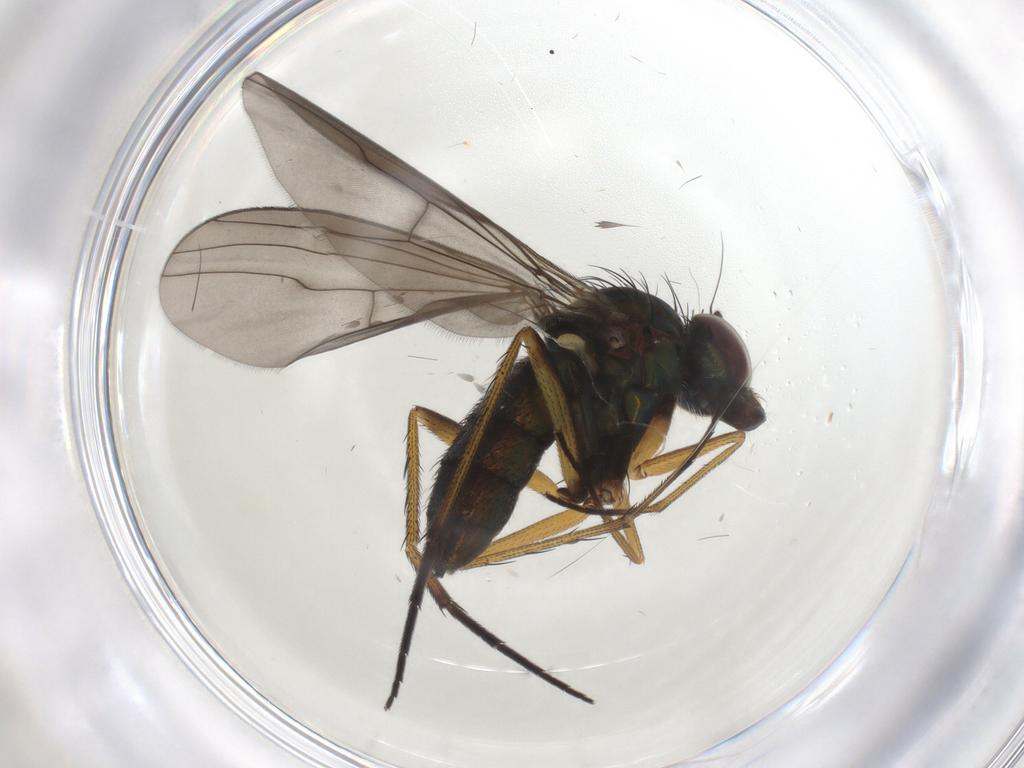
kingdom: Animalia
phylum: Arthropoda
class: Insecta
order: Diptera
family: Dolichopodidae
